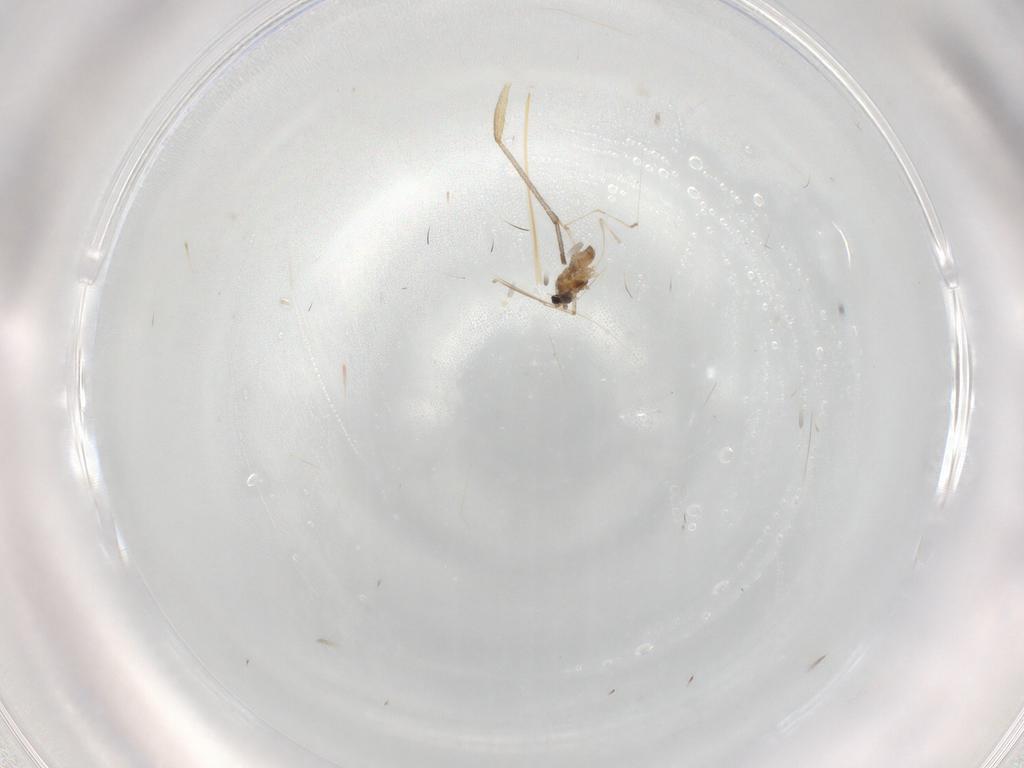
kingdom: Animalia
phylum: Arthropoda
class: Insecta
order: Diptera
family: Cecidomyiidae
